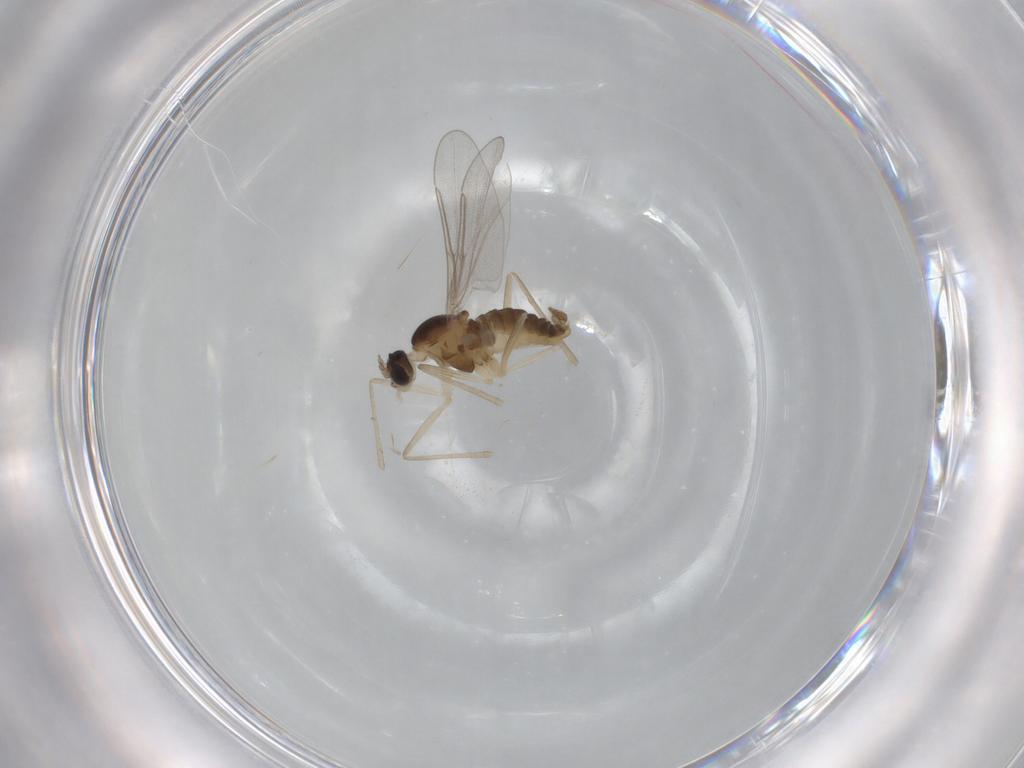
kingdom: Animalia
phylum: Arthropoda
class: Insecta
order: Diptera
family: Cecidomyiidae
